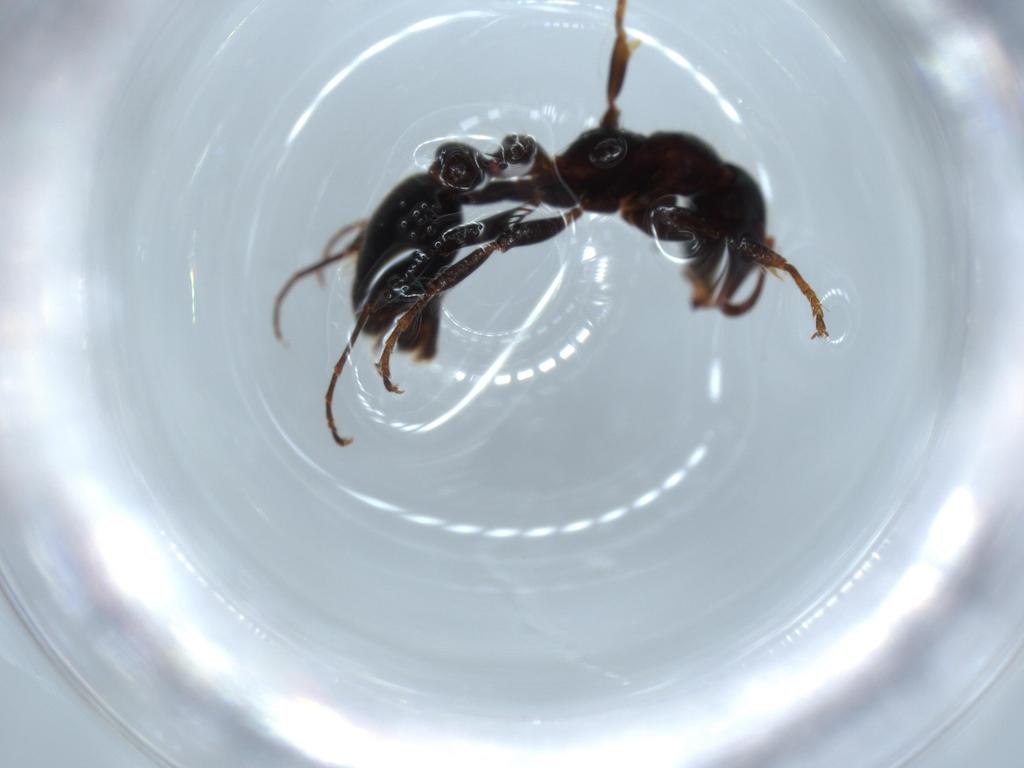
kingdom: Animalia
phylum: Arthropoda
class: Insecta
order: Hymenoptera
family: Formicidae
